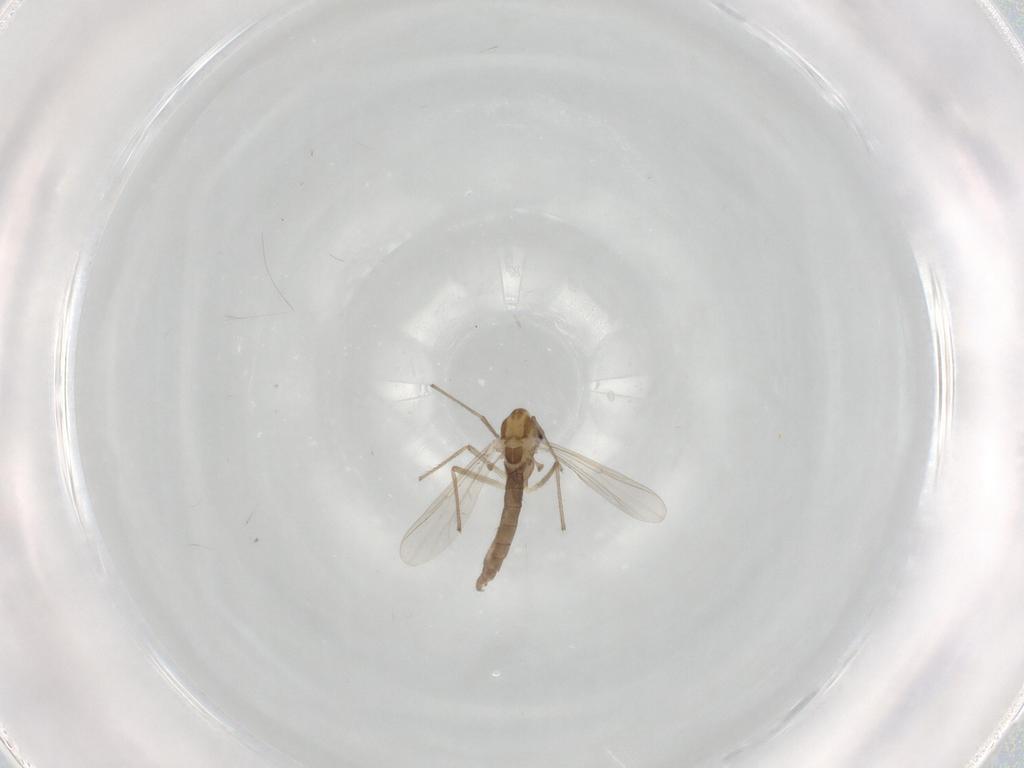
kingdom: Animalia
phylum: Arthropoda
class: Insecta
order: Diptera
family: Chironomidae
